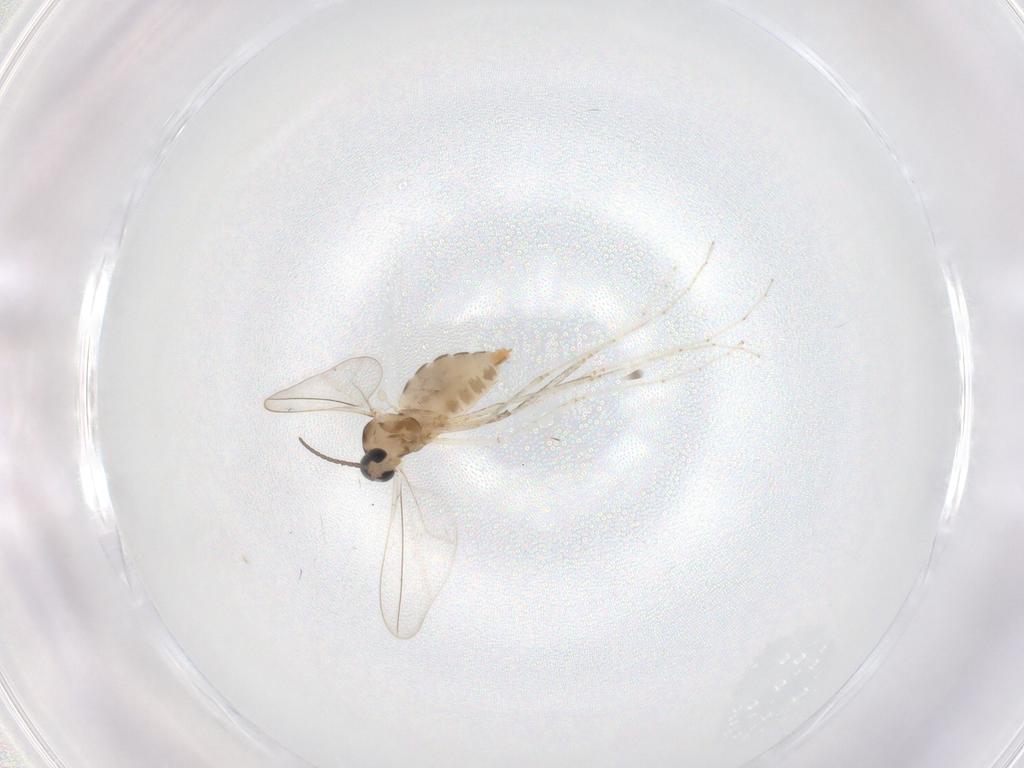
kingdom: Animalia
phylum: Arthropoda
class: Insecta
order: Diptera
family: Cecidomyiidae
